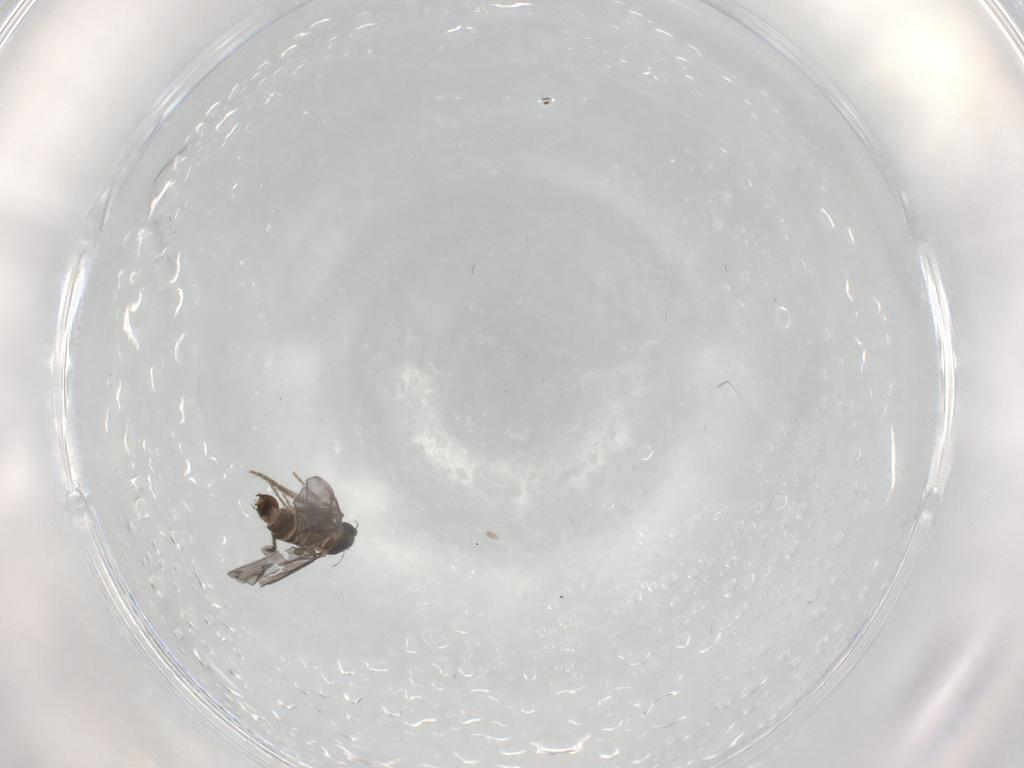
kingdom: Animalia
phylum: Arthropoda
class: Insecta
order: Diptera
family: Phoridae
